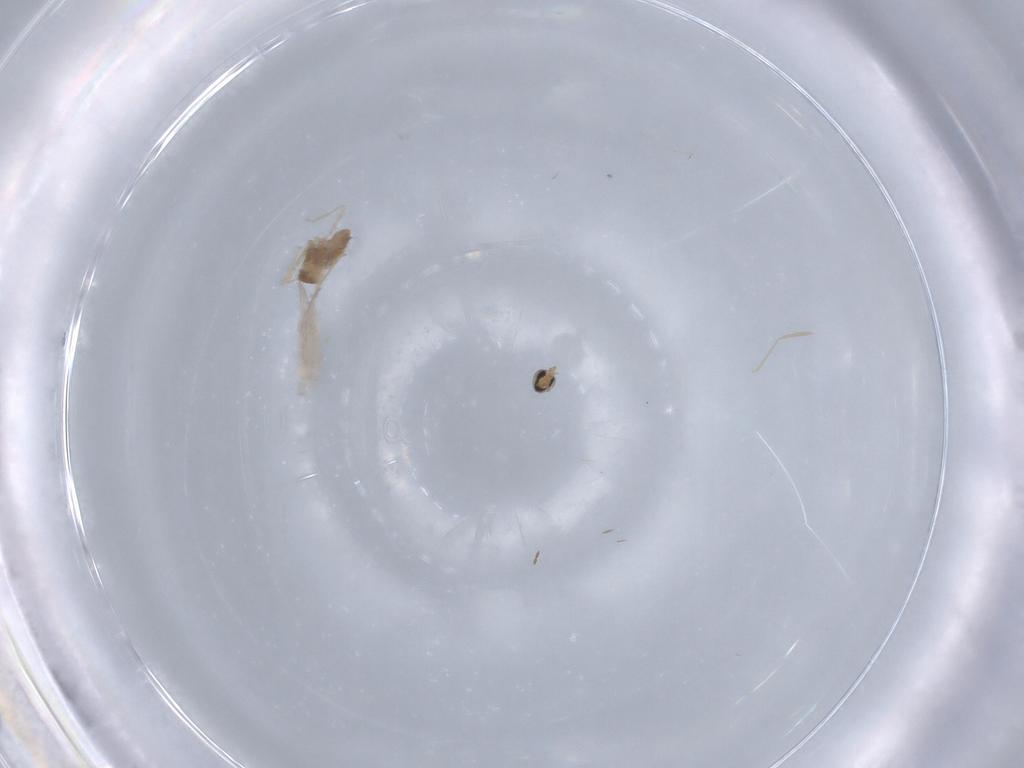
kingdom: Animalia
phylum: Arthropoda
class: Insecta
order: Diptera
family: Cecidomyiidae
